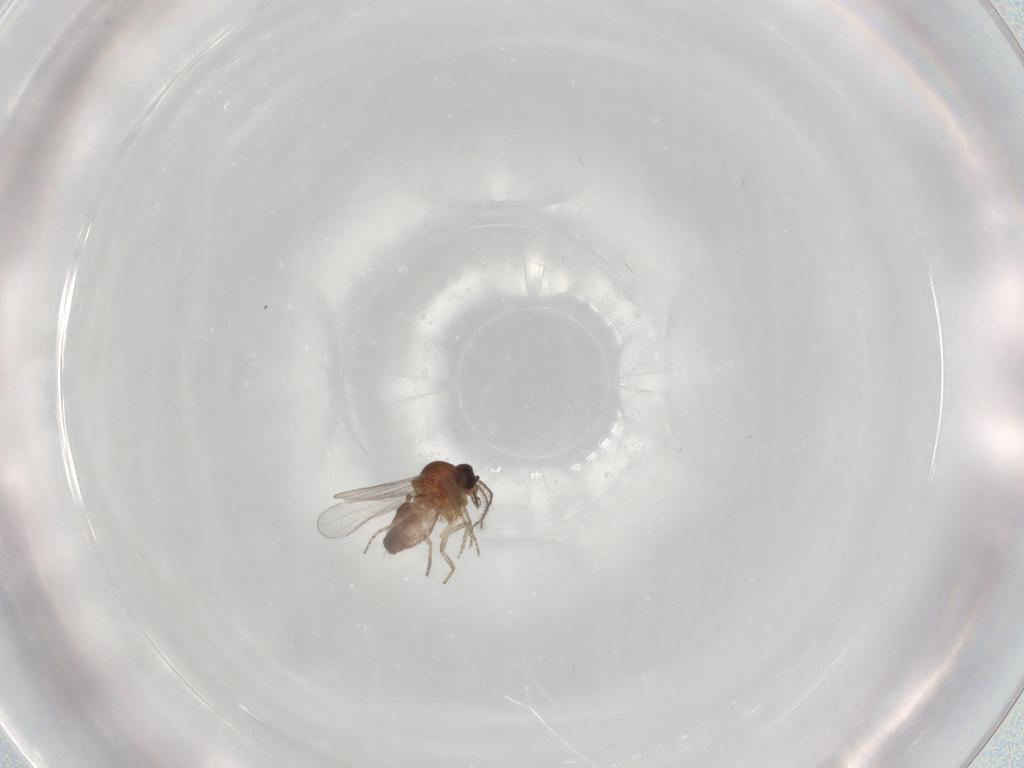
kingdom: Animalia
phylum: Arthropoda
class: Insecta
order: Diptera
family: Ceratopogonidae
